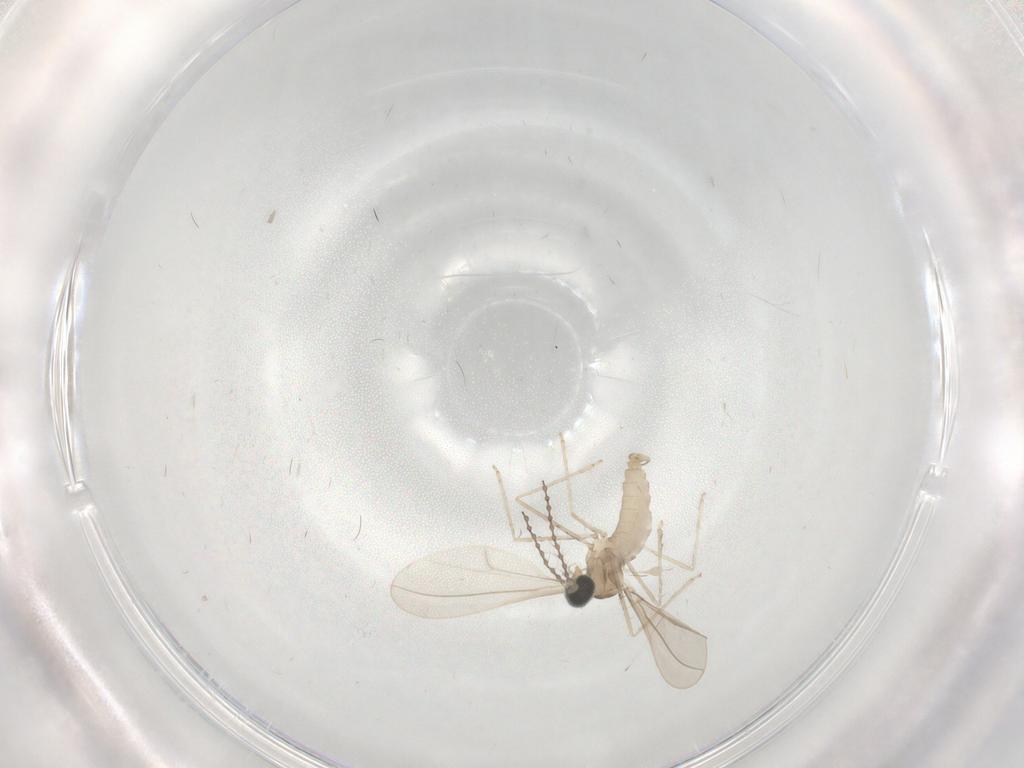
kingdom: Animalia
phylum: Arthropoda
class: Insecta
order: Diptera
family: Cecidomyiidae
